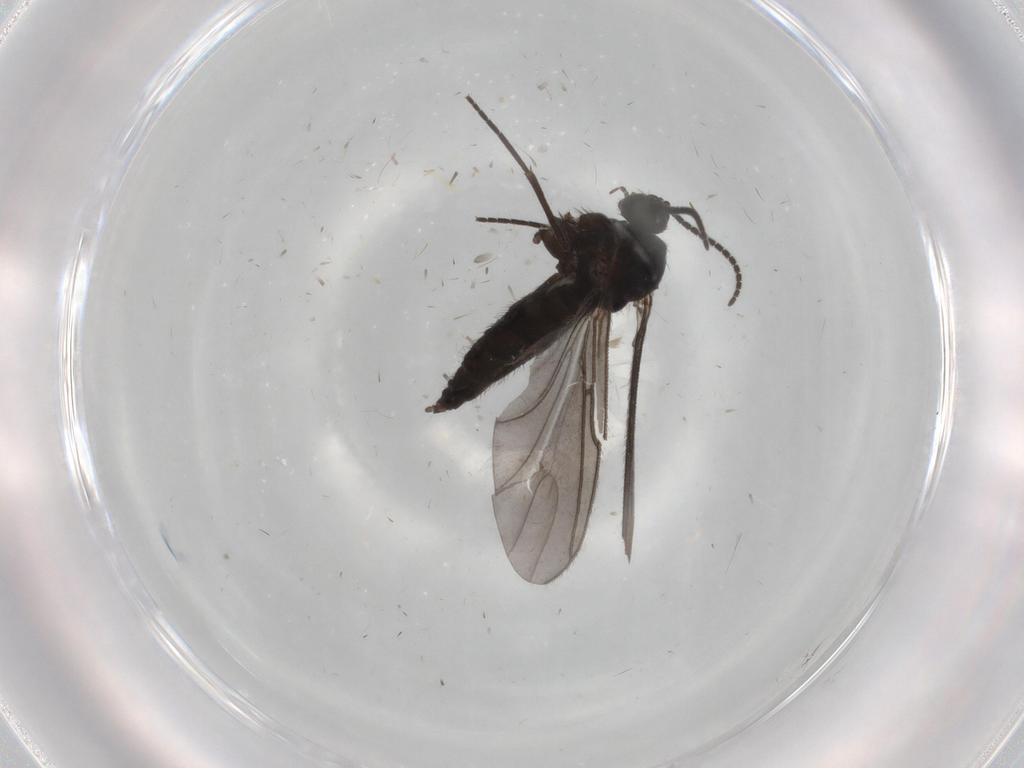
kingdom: Animalia
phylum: Arthropoda
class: Insecta
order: Diptera
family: Sciaridae
